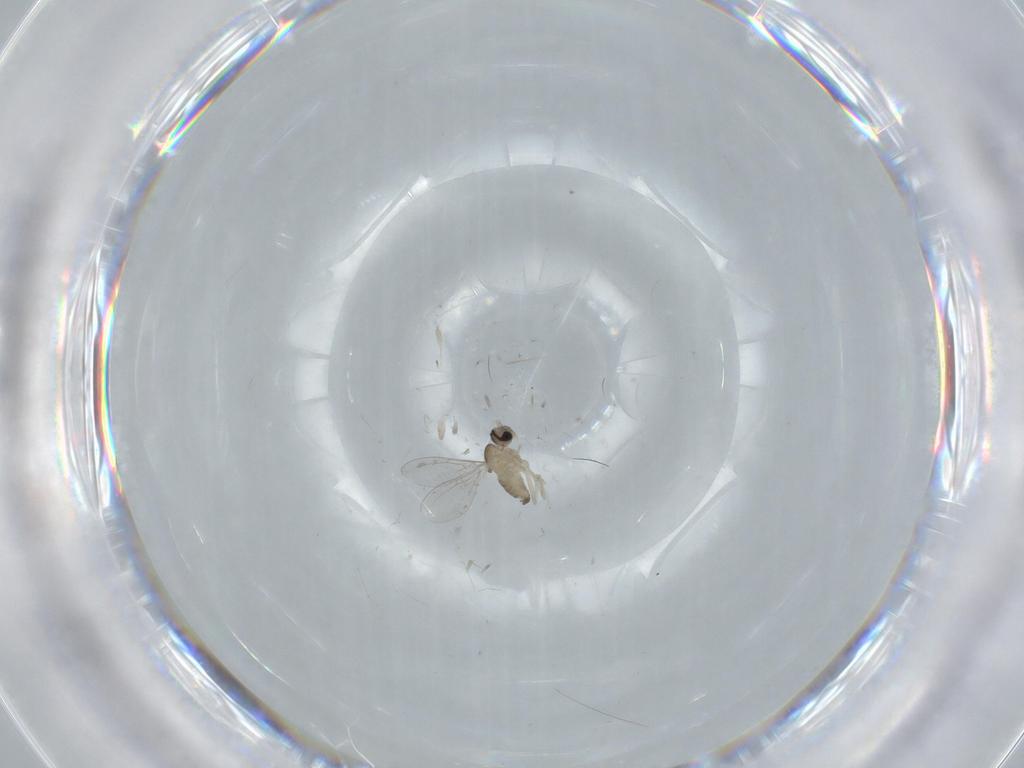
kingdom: Animalia
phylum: Arthropoda
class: Insecta
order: Diptera
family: Cecidomyiidae
